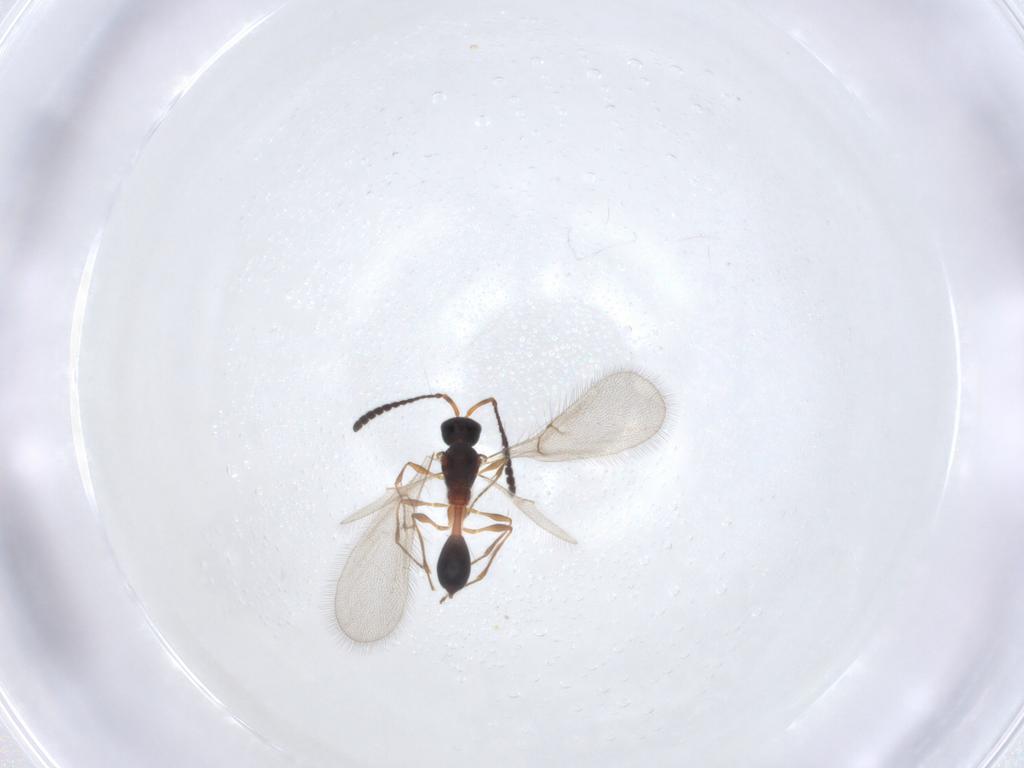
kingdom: Animalia
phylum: Arthropoda
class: Insecta
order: Hymenoptera
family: Diapriidae
